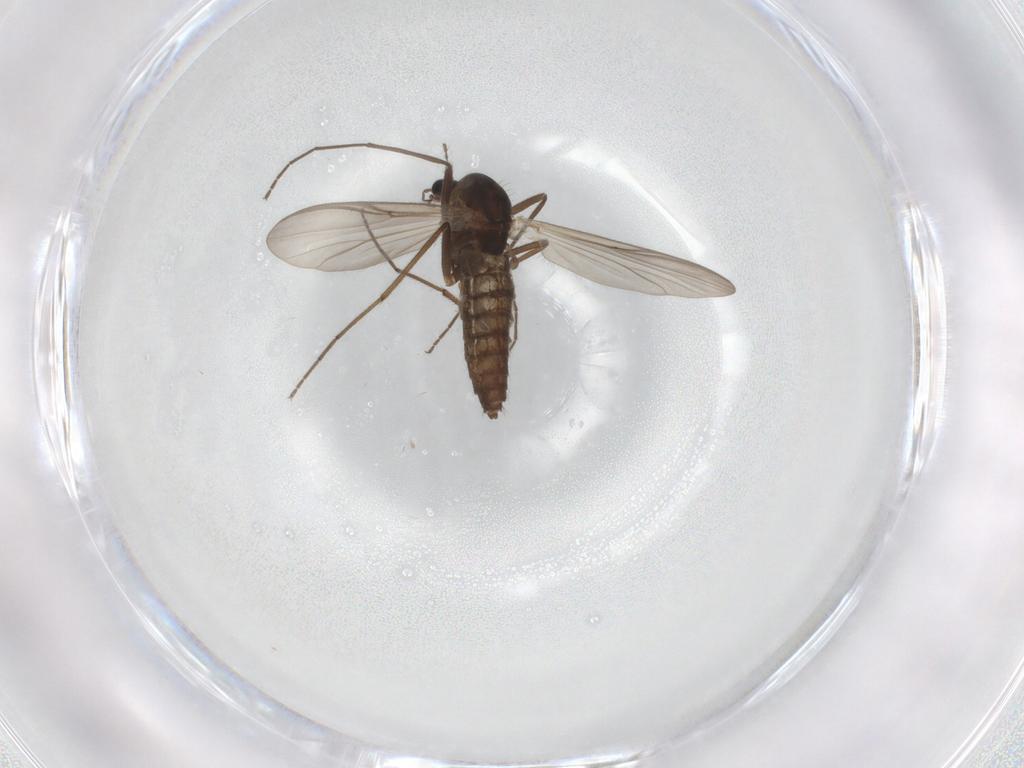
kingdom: Animalia
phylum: Arthropoda
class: Insecta
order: Diptera
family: Chironomidae
